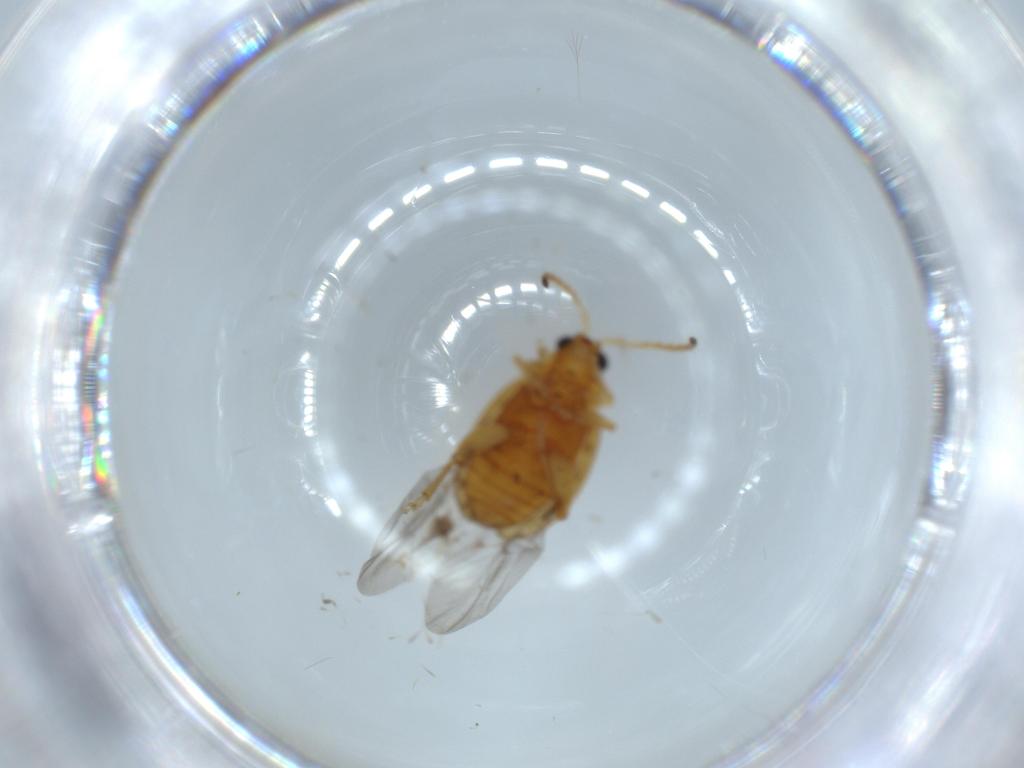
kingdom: Animalia
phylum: Arthropoda
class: Insecta
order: Coleoptera
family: Chrysomelidae
